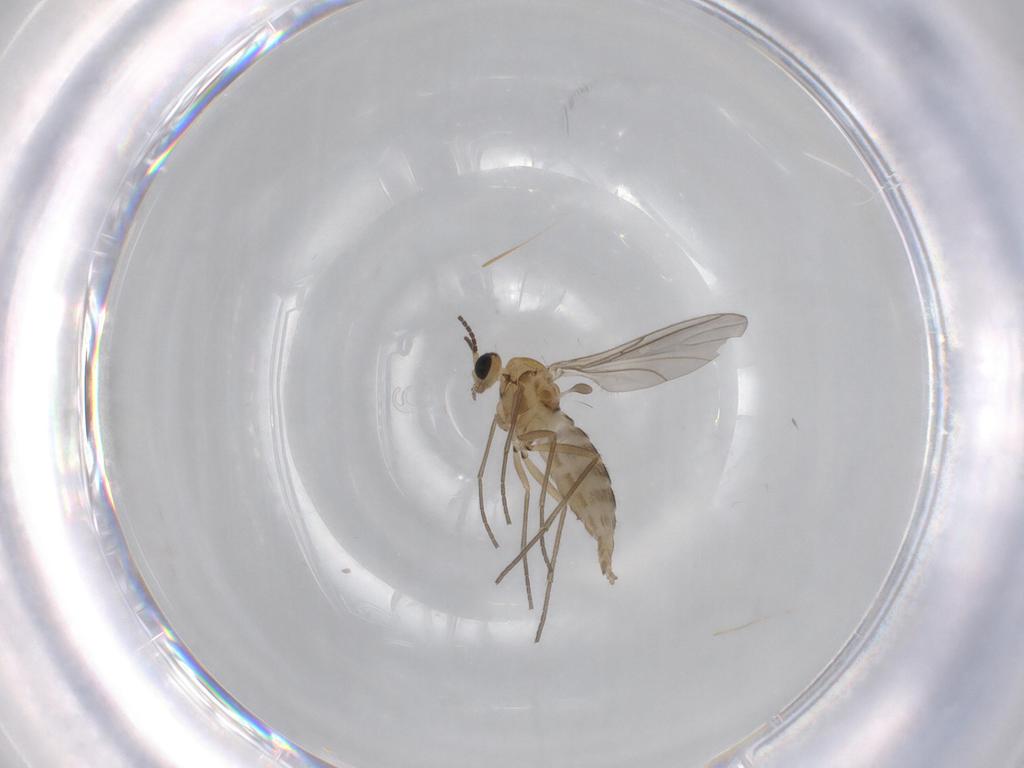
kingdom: Animalia
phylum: Arthropoda
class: Insecta
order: Diptera
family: Sciaridae
